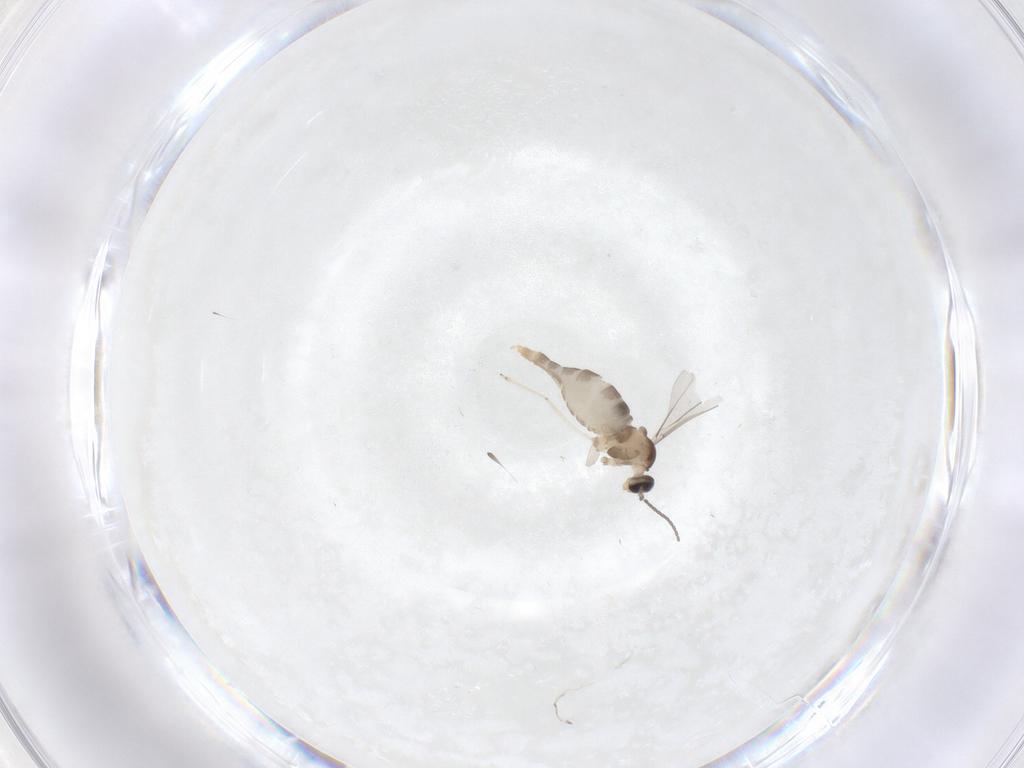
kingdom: Animalia
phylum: Arthropoda
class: Insecta
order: Diptera
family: Cecidomyiidae
